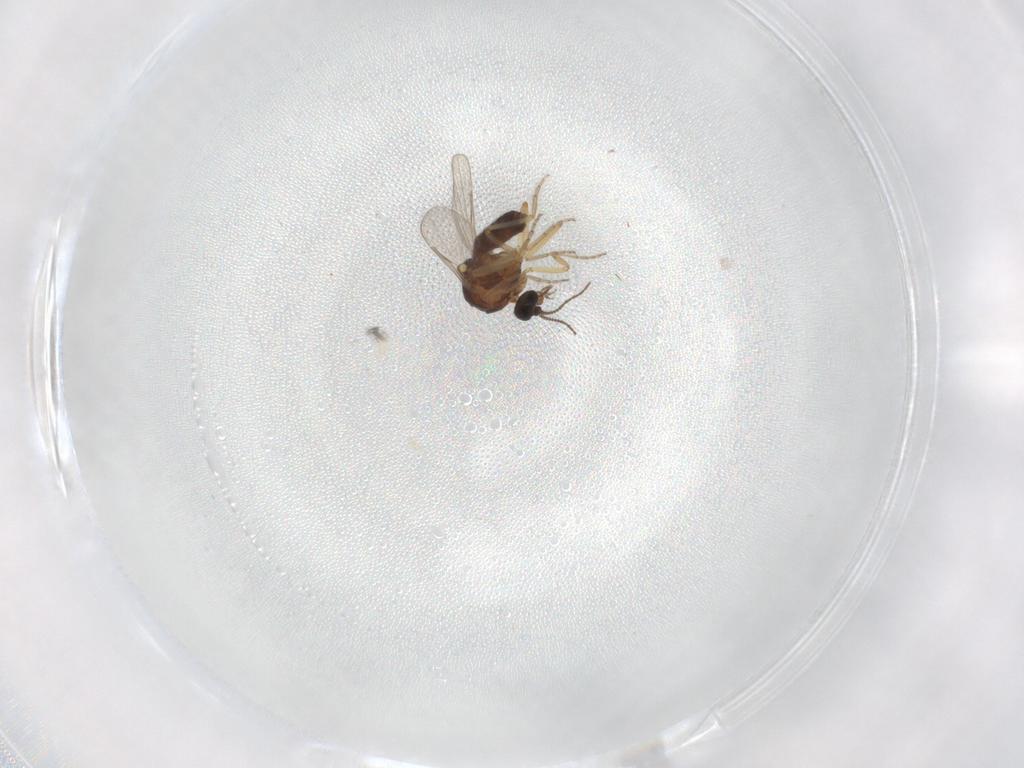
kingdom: Animalia
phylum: Arthropoda
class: Insecta
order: Diptera
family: Ceratopogonidae
